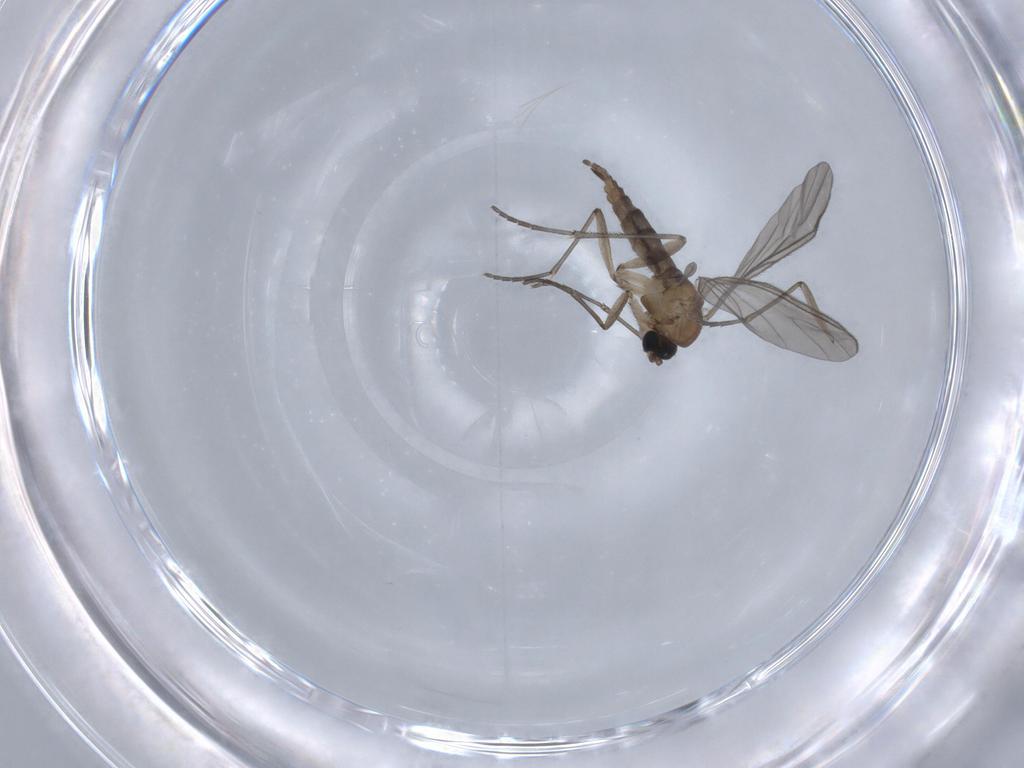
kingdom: Animalia
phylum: Arthropoda
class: Insecta
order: Diptera
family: Sciaridae
